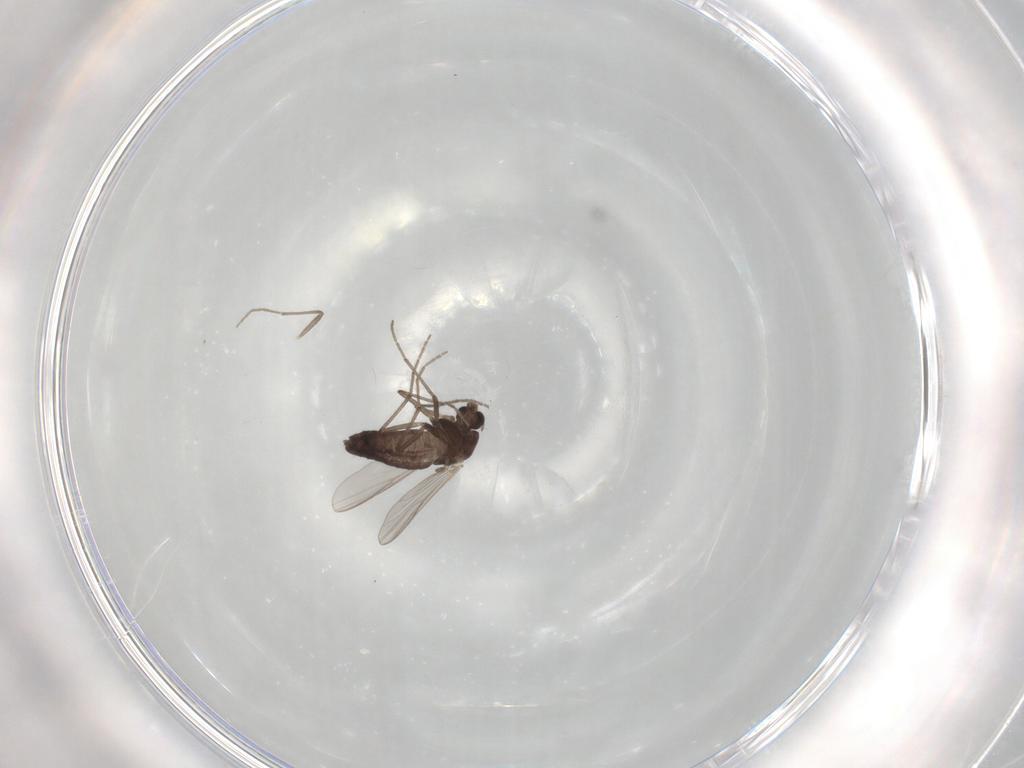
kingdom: Animalia
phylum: Arthropoda
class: Insecta
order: Diptera
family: Chironomidae
